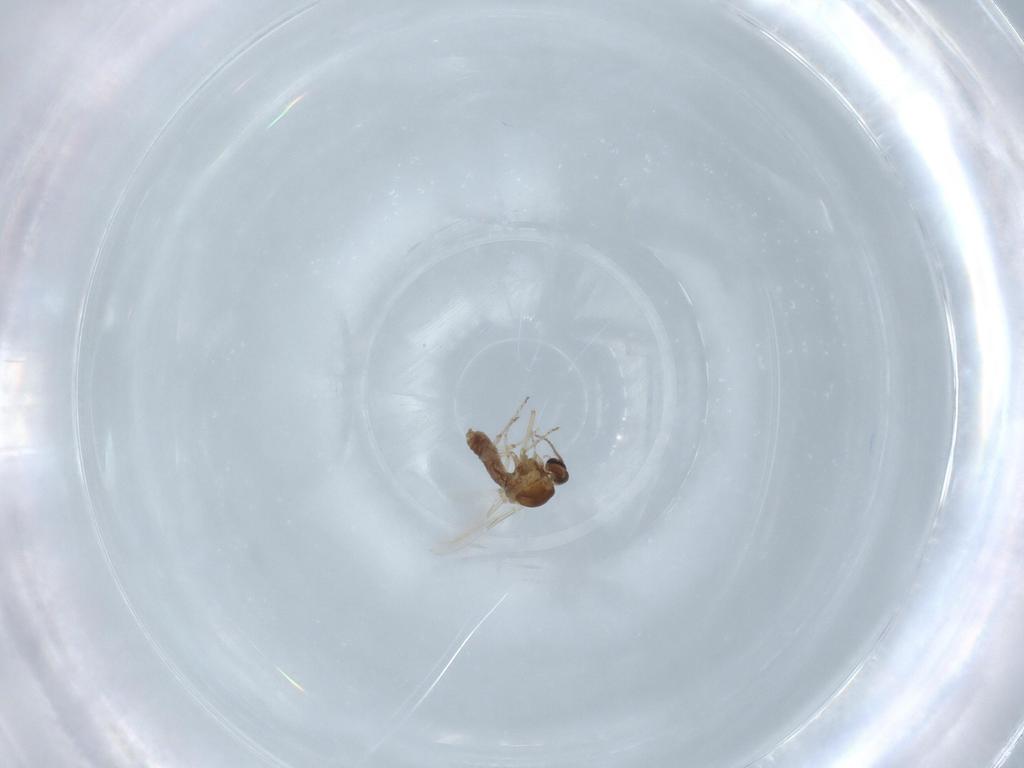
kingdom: Animalia
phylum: Arthropoda
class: Insecta
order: Diptera
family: Ceratopogonidae
